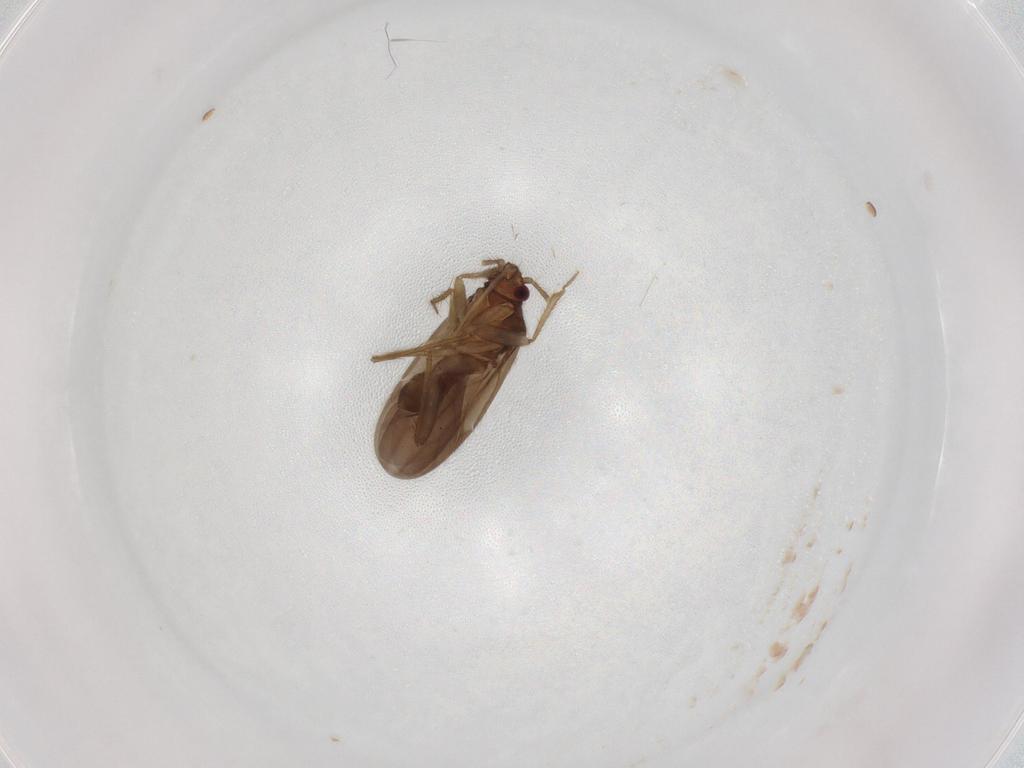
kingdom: Animalia
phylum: Arthropoda
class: Insecta
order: Hemiptera
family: Ceratocombidae
